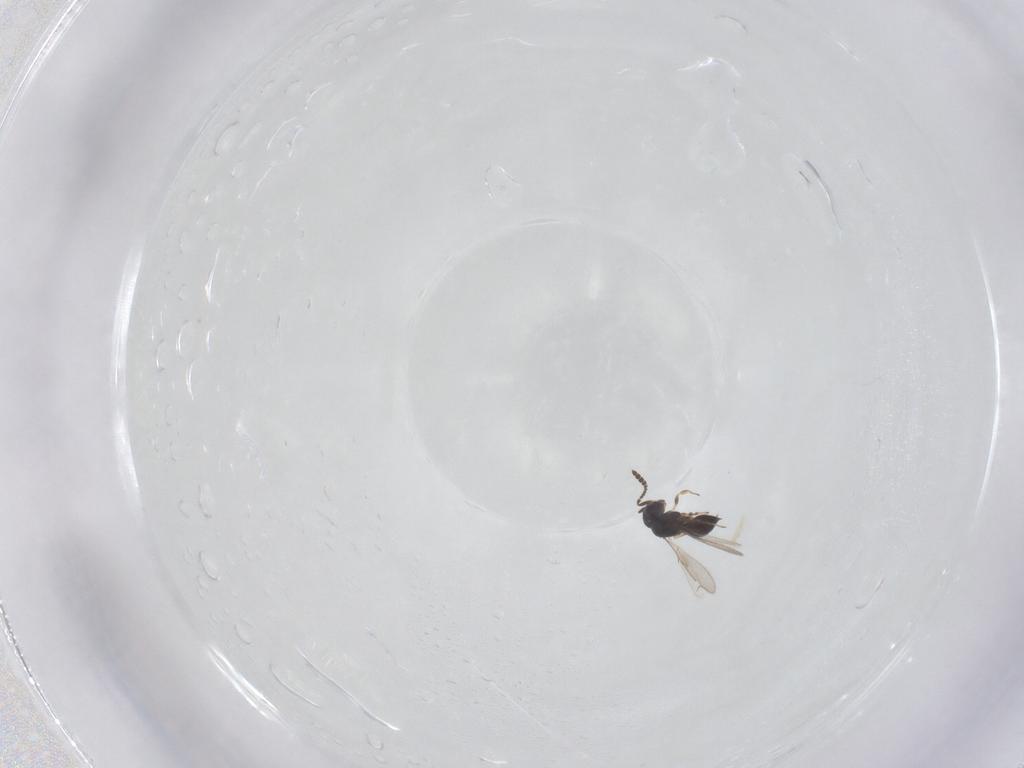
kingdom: Animalia
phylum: Arthropoda
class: Insecta
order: Hymenoptera
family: Scelionidae
